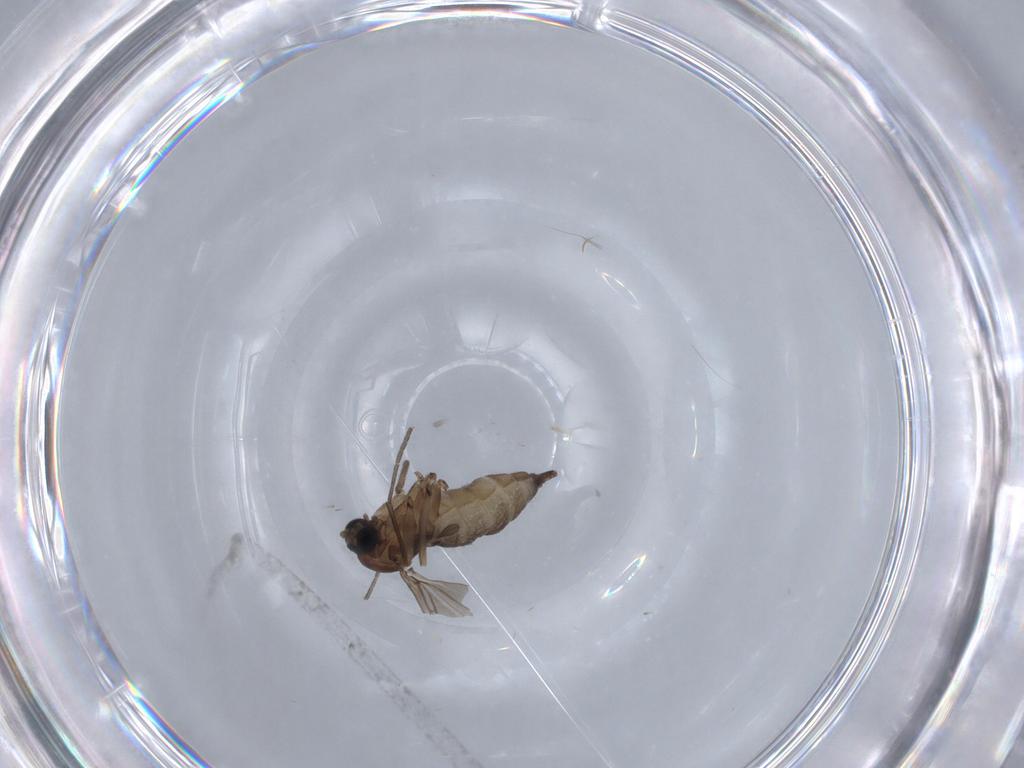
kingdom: Animalia
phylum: Arthropoda
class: Insecta
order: Diptera
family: Sciaridae
